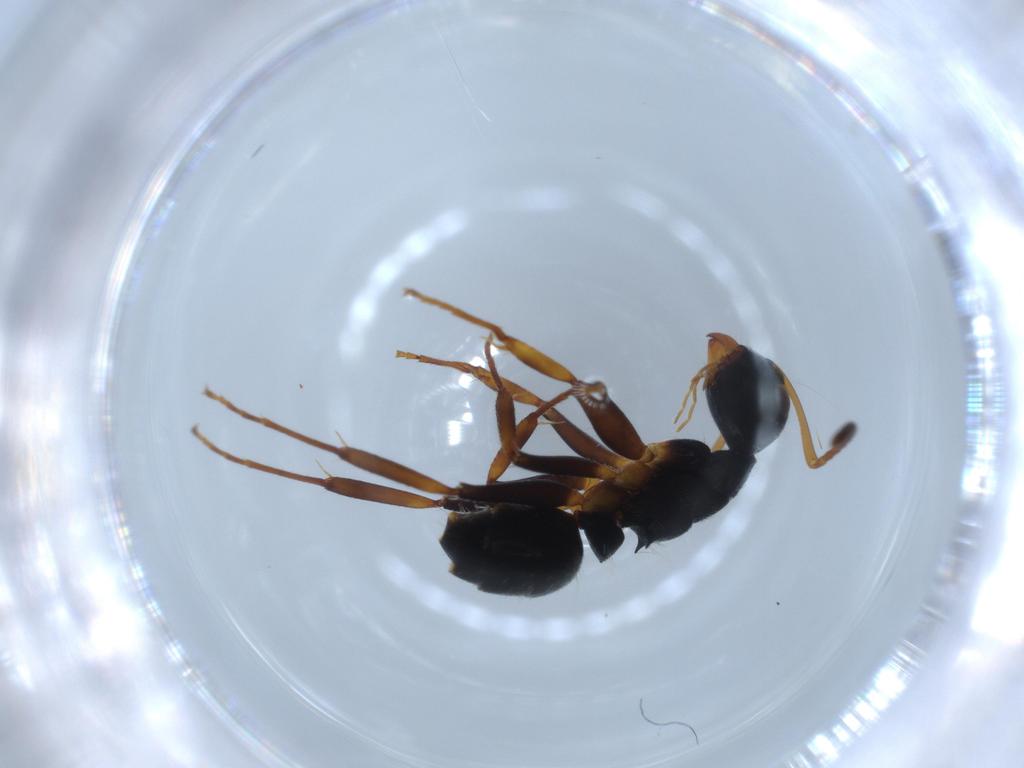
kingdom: Animalia
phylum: Arthropoda
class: Insecta
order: Hymenoptera
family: Formicidae
